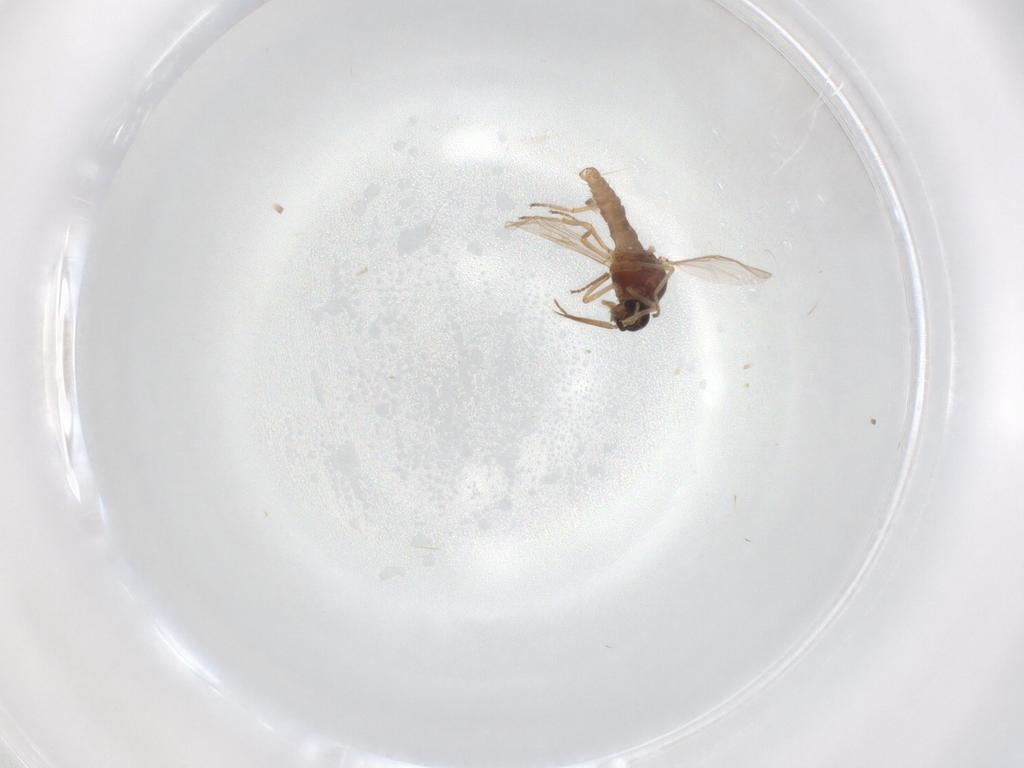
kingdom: Animalia
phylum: Arthropoda
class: Insecta
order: Diptera
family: Ceratopogonidae
